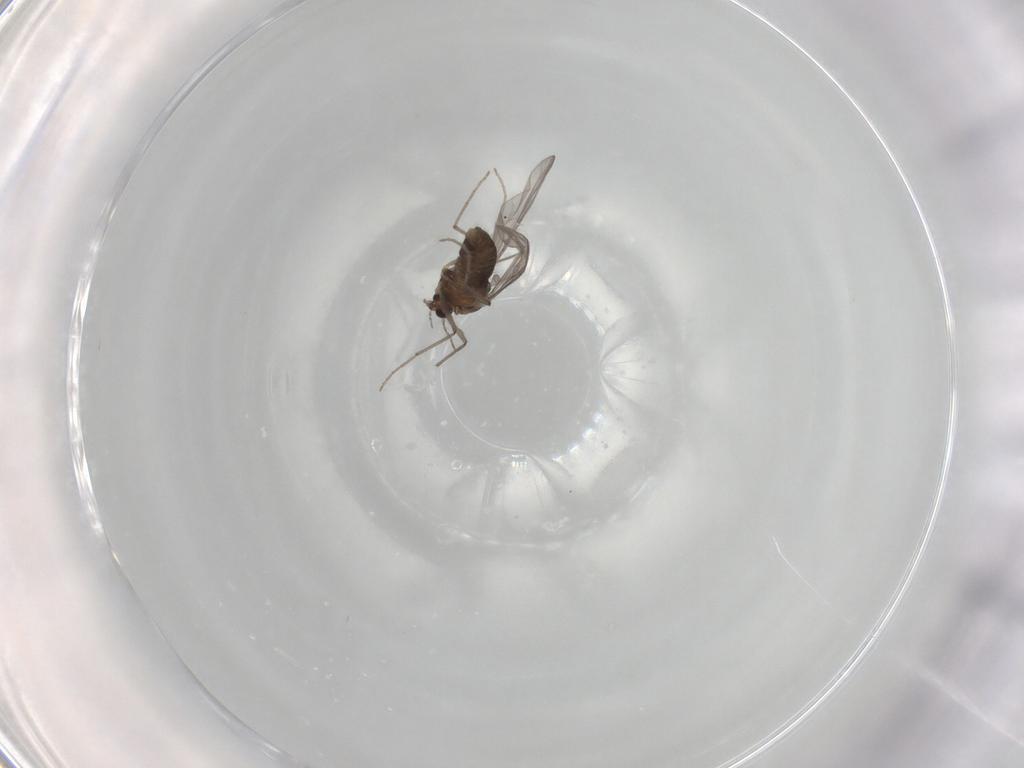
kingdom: Animalia
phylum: Arthropoda
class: Insecta
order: Diptera
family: Chironomidae
